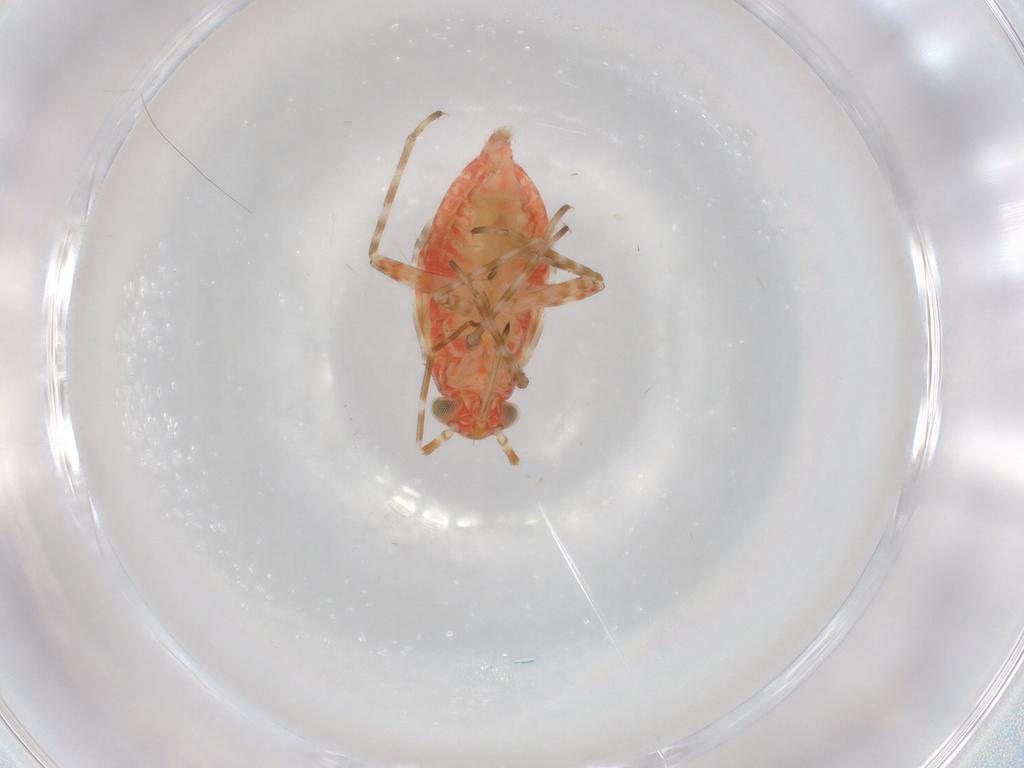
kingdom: Animalia
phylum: Arthropoda
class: Insecta
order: Hemiptera
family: Miridae
